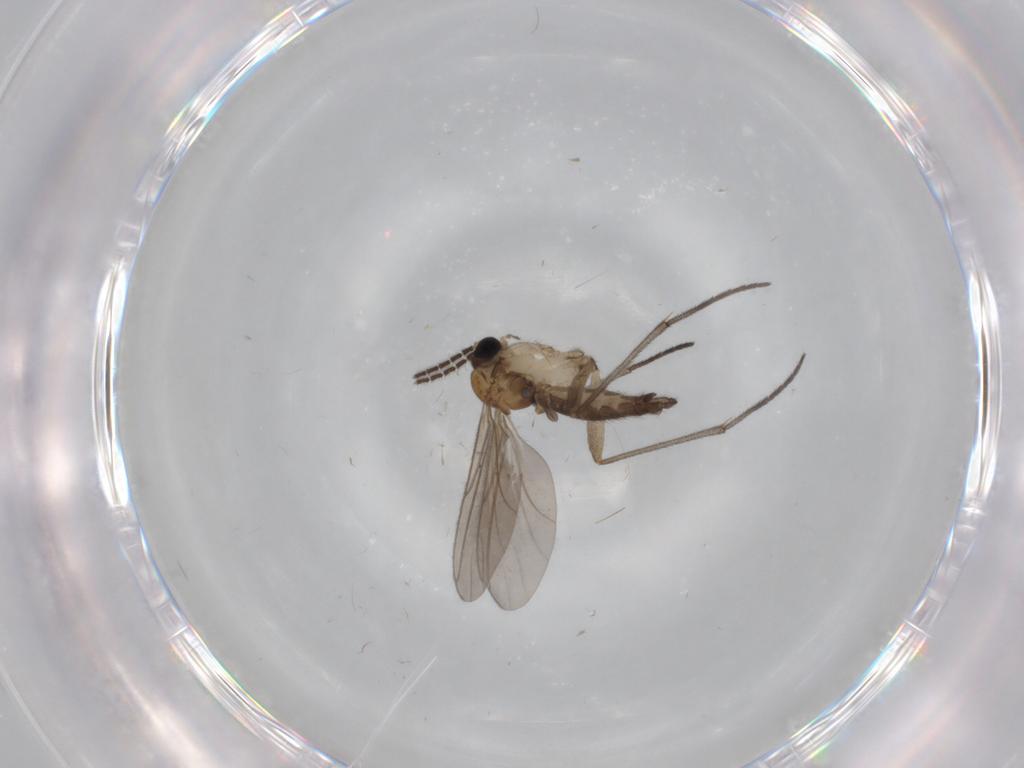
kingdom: Animalia
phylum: Arthropoda
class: Insecta
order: Diptera
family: Sciaridae
